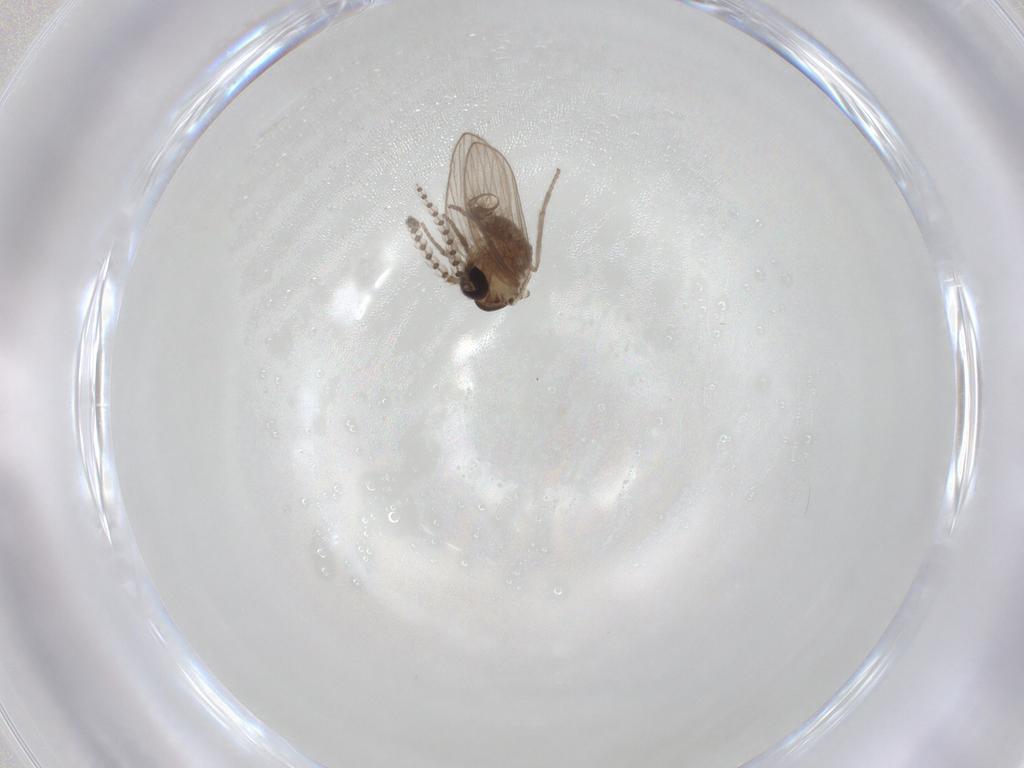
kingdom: Animalia
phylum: Arthropoda
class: Insecta
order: Diptera
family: Psychodidae
